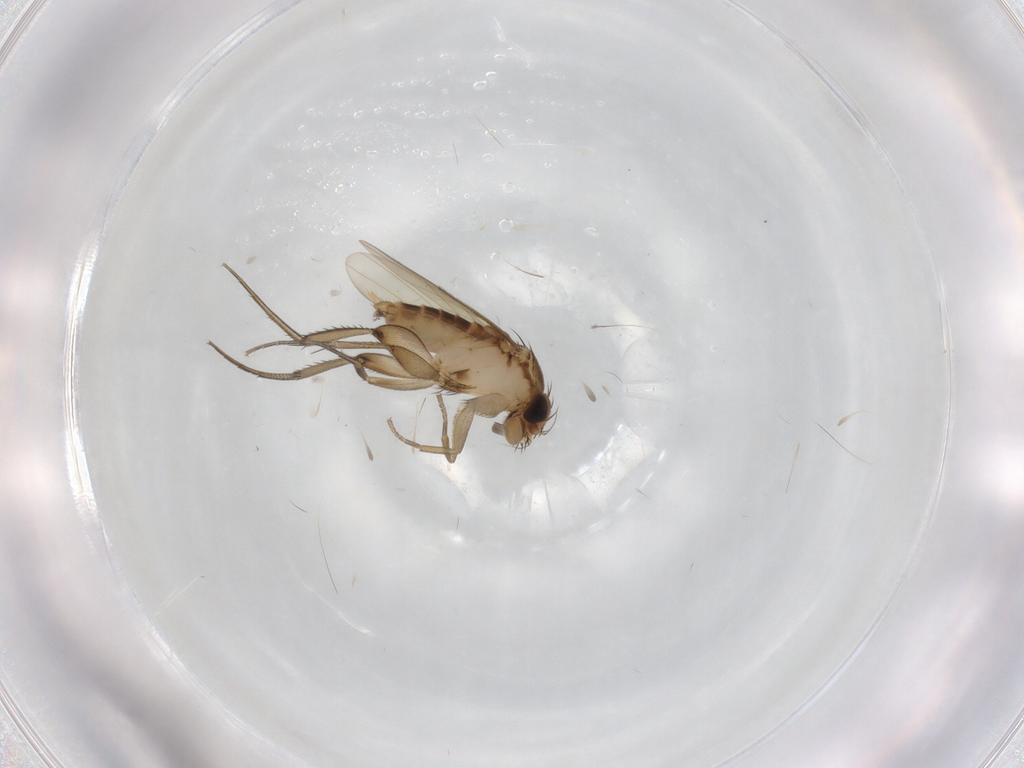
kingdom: Animalia
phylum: Arthropoda
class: Insecta
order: Diptera
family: Phoridae
